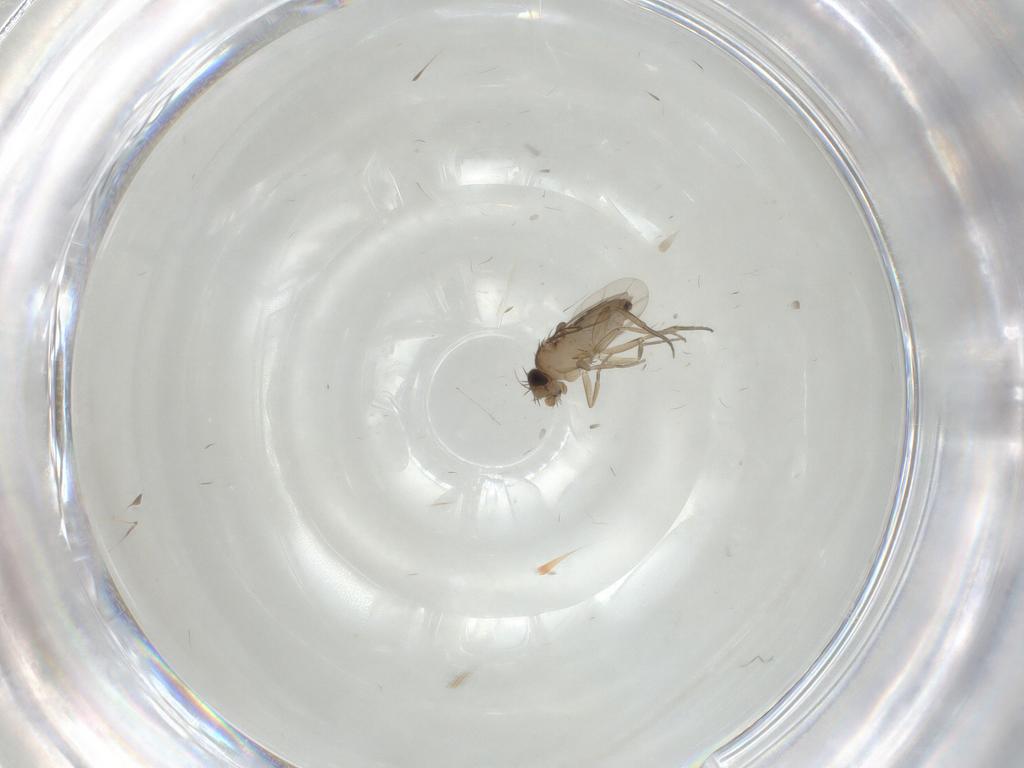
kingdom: Animalia
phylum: Arthropoda
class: Insecta
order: Diptera
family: Phoridae
